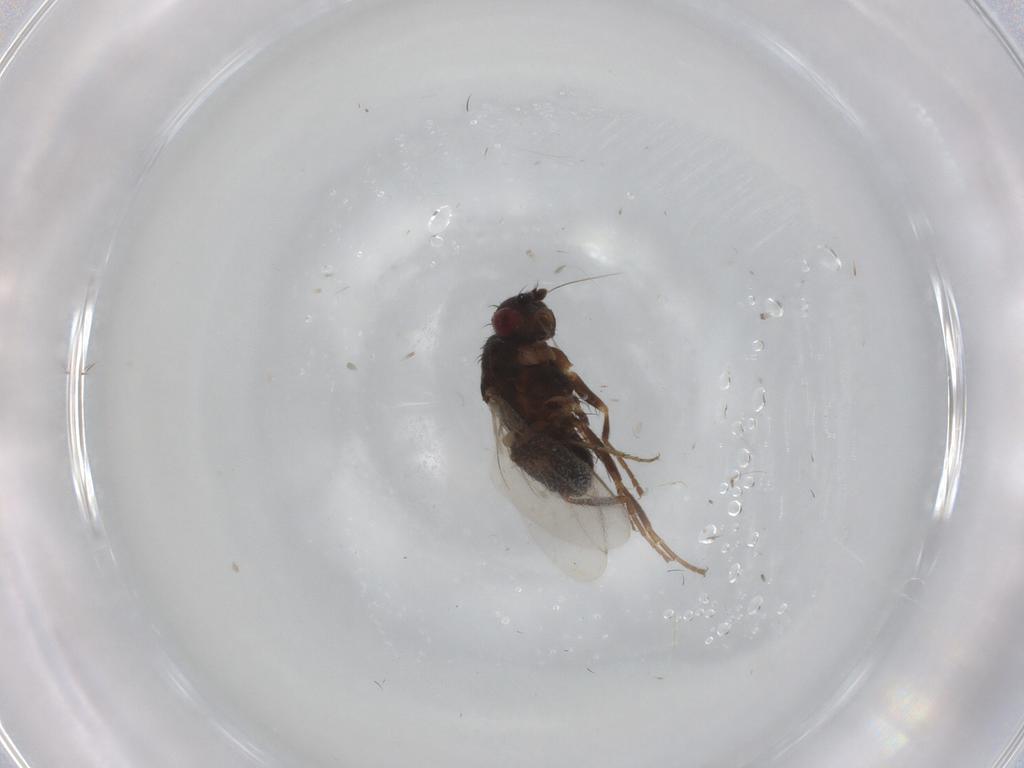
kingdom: Animalia
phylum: Arthropoda
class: Insecta
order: Diptera
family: Sphaeroceridae
